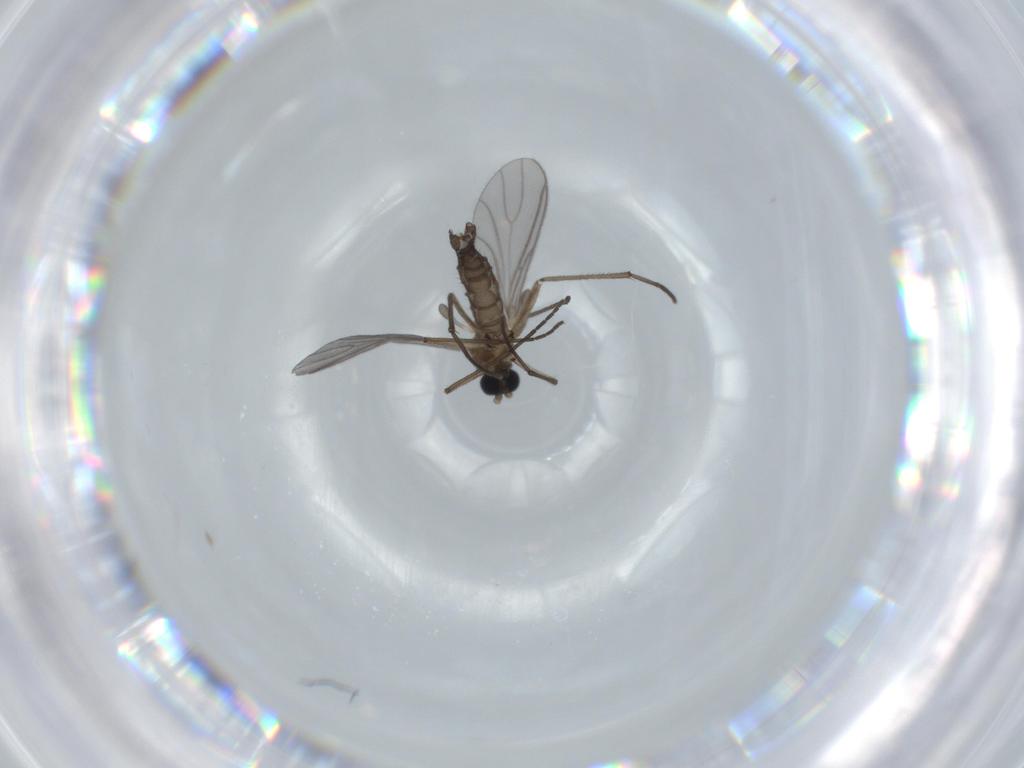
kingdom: Animalia
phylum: Arthropoda
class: Insecta
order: Diptera
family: Sciaridae
